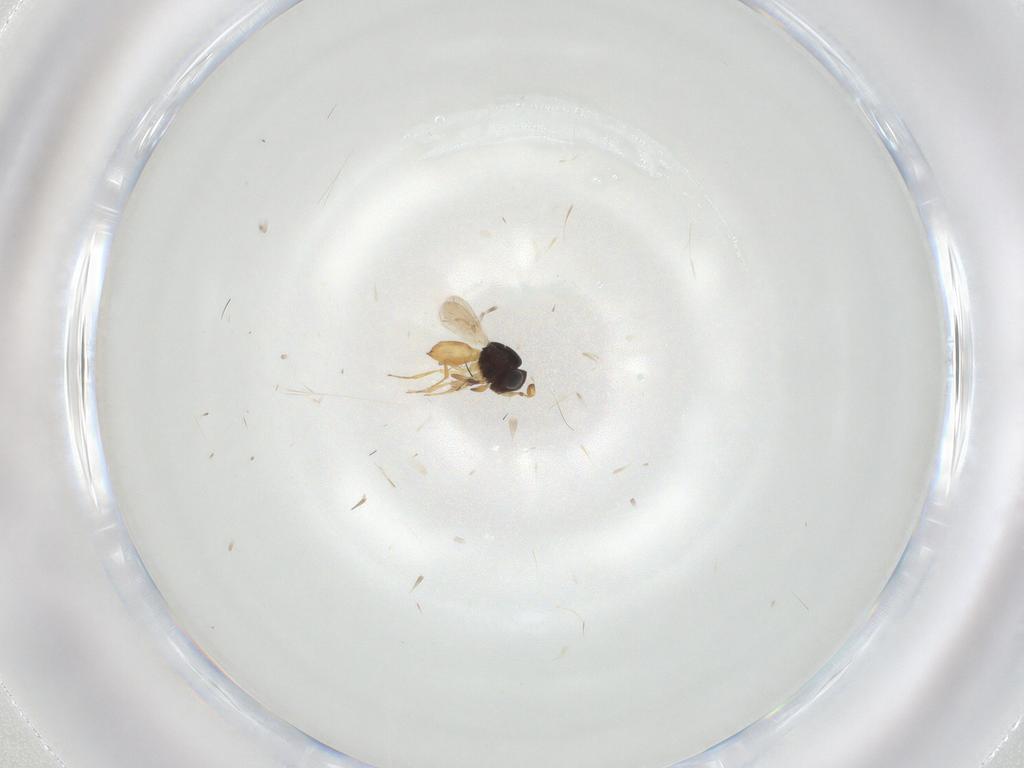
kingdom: Animalia
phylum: Arthropoda
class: Insecta
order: Hymenoptera
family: Scelionidae
